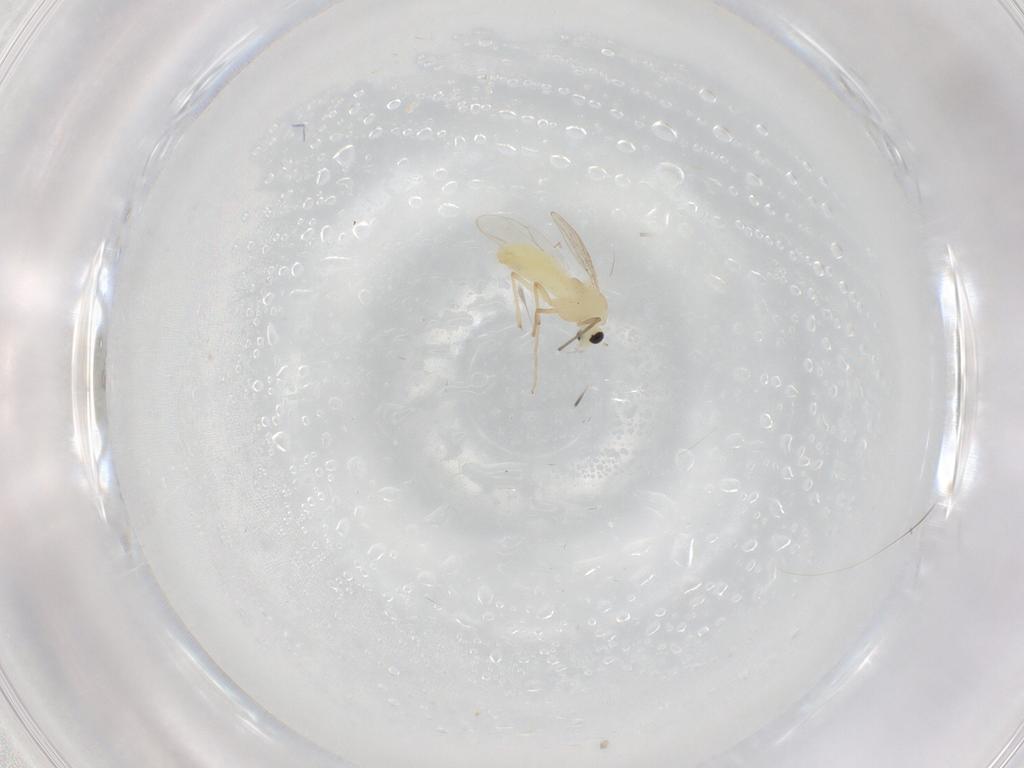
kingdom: Animalia
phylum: Arthropoda
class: Insecta
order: Diptera
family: Chironomidae
